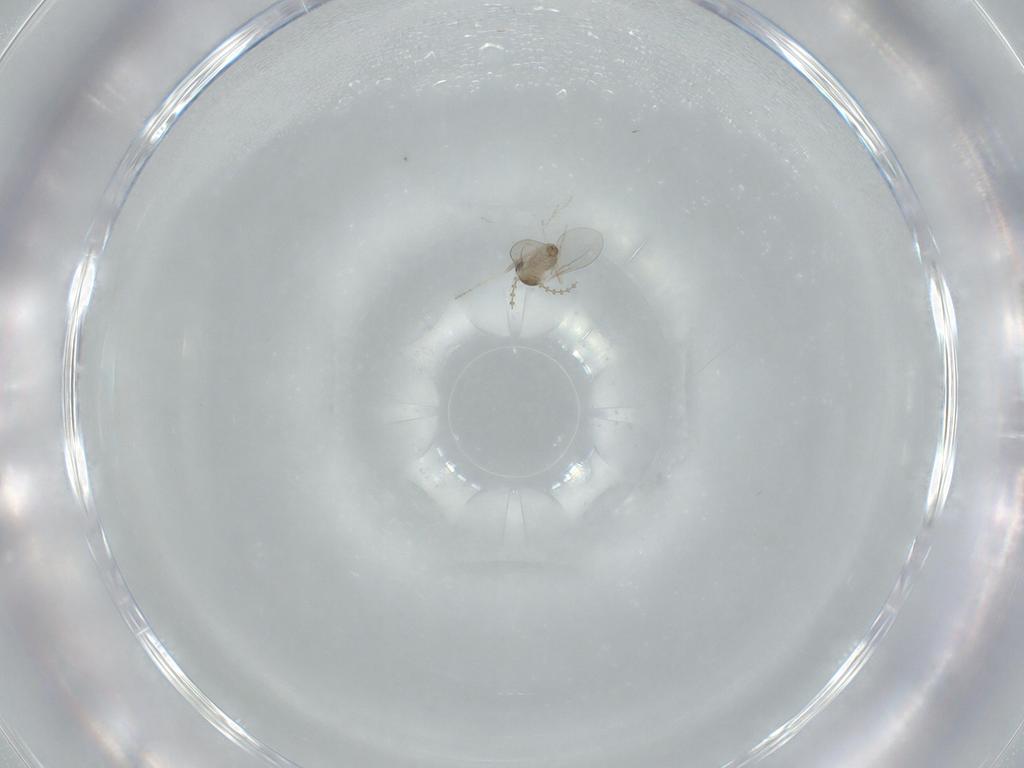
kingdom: Animalia
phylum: Arthropoda
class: Insecta
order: Diptera
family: Cecidomyiidae
